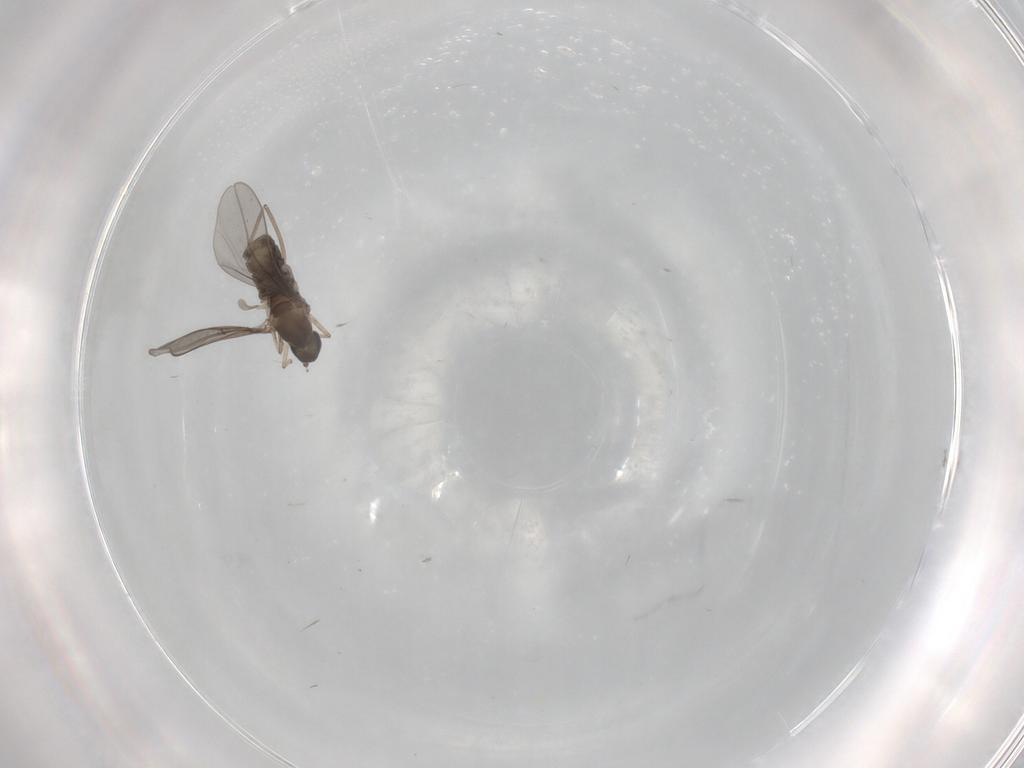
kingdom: Animalia
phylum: Arthropoda
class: Insecta
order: Diptera
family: Cecidomyiidae
